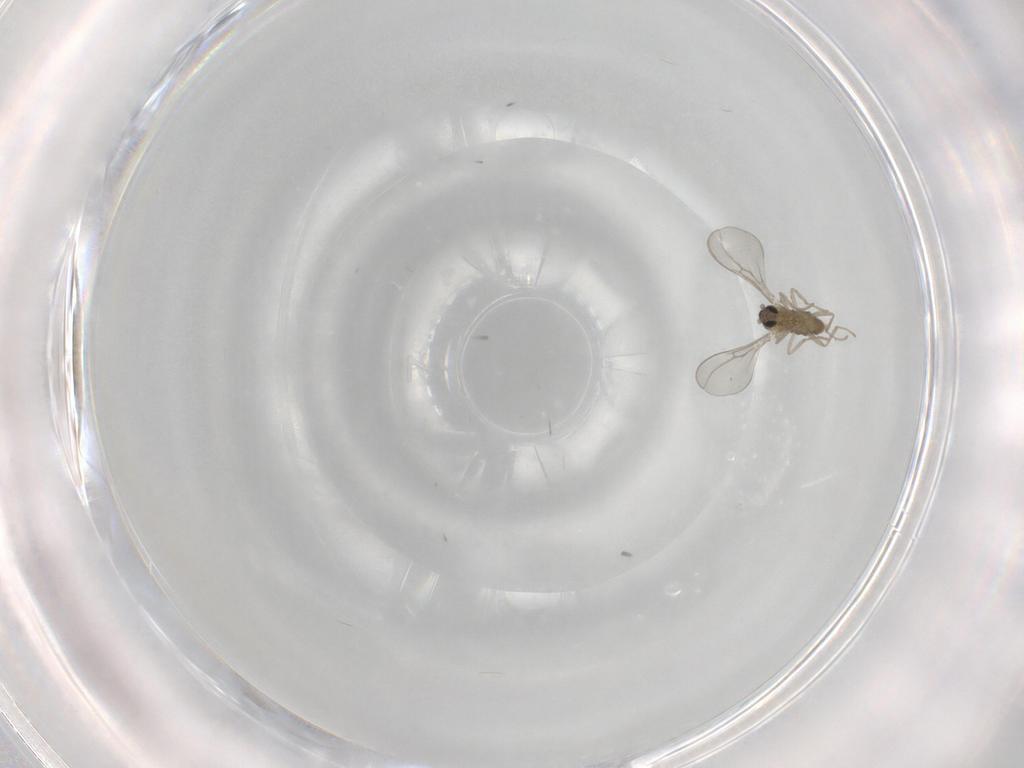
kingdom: Animalia
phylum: Arthropoda
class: Insecta
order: Diptera
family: Cecidomyiidae
